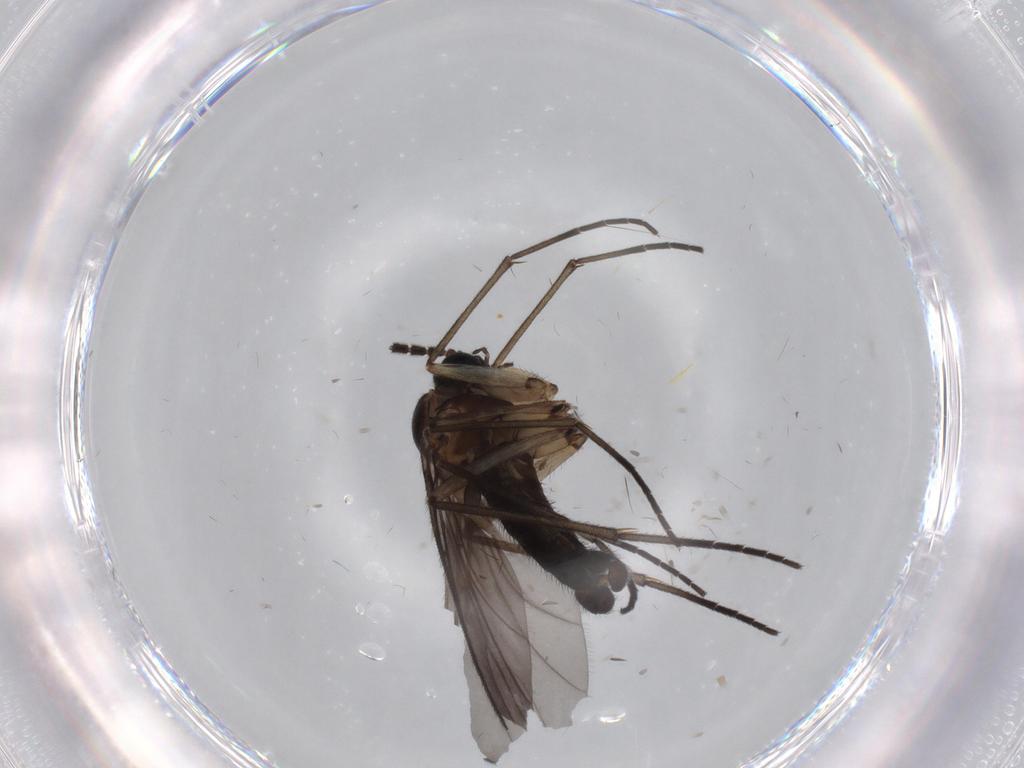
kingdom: Animalia
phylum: Arthropoda
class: Insecta
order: Diptera
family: Sciaridae
